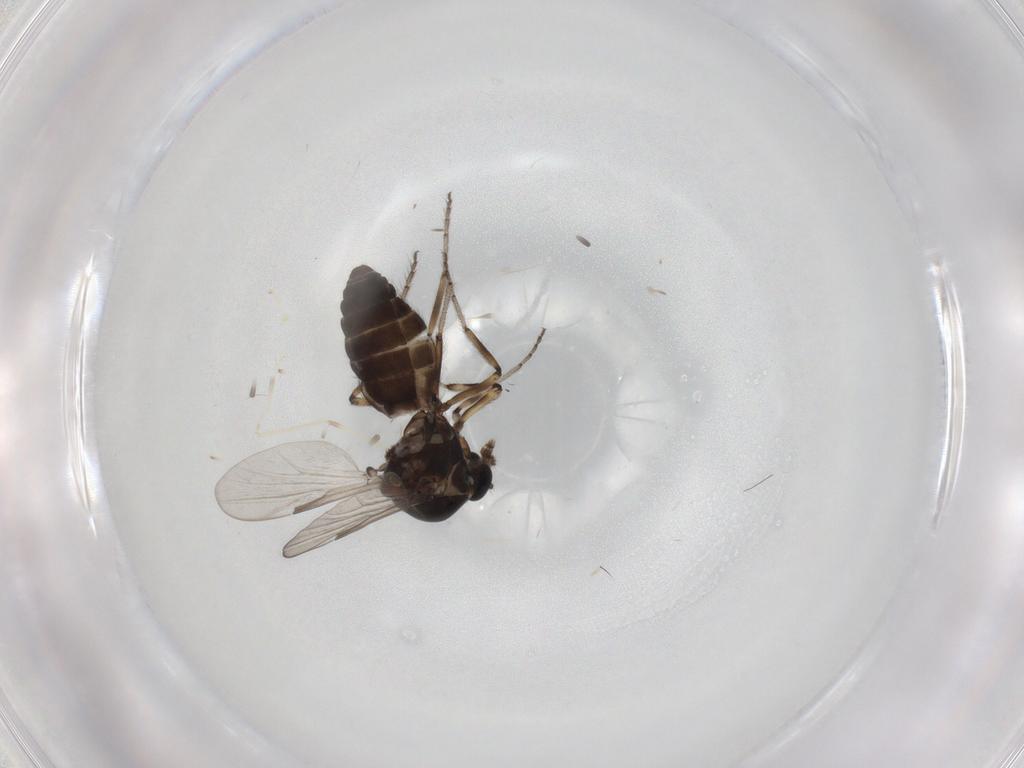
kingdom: Animalia
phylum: Arthropoda
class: Insecta
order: Diptera
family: Ceratopogonidae
